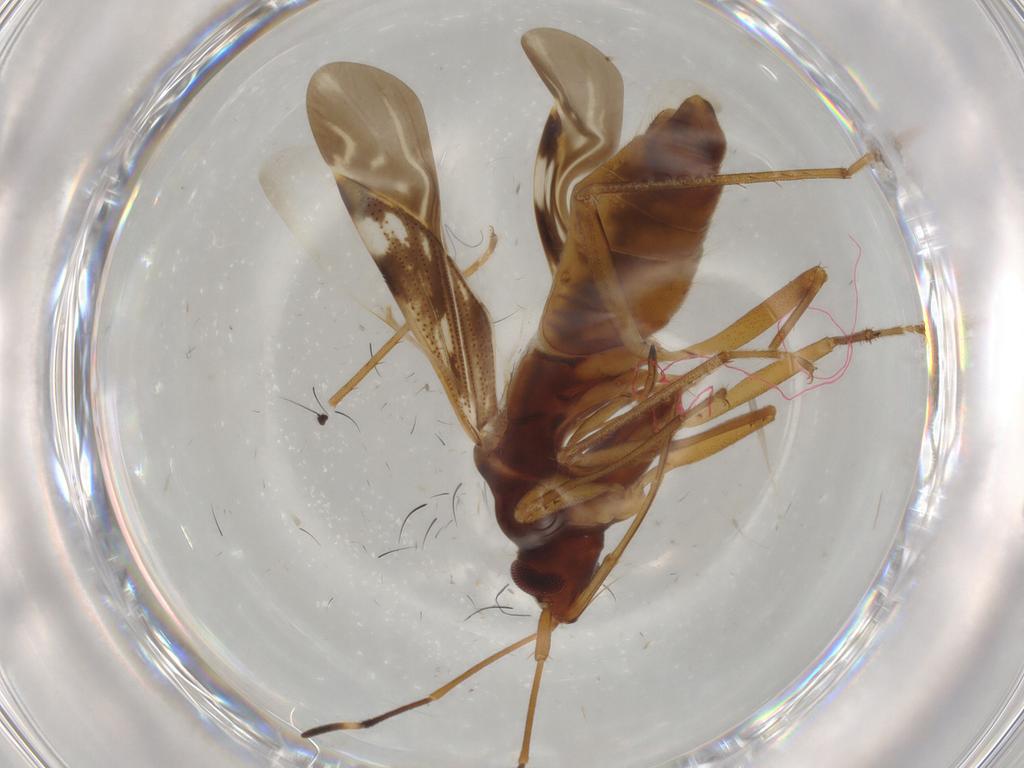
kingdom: Animalia
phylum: Arthropoda
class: Insecta
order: Hemiptera
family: Rhyparochromidae
